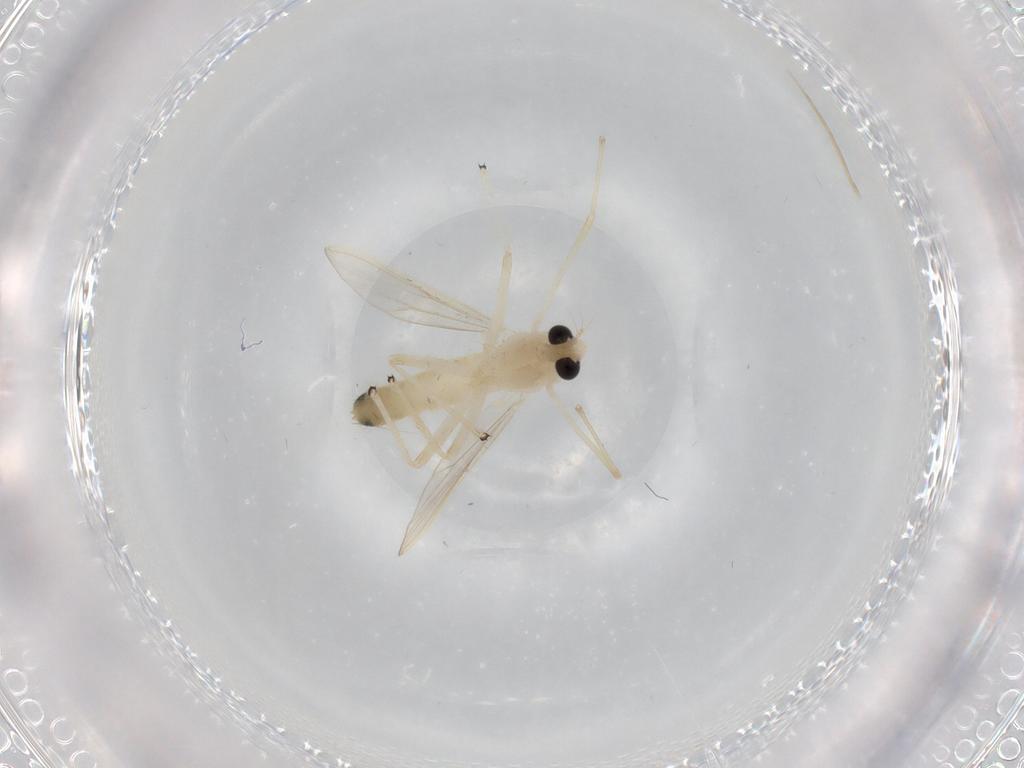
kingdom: Animalia
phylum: Arthropoda
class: Insecta
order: Diptera
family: Chironomidae
